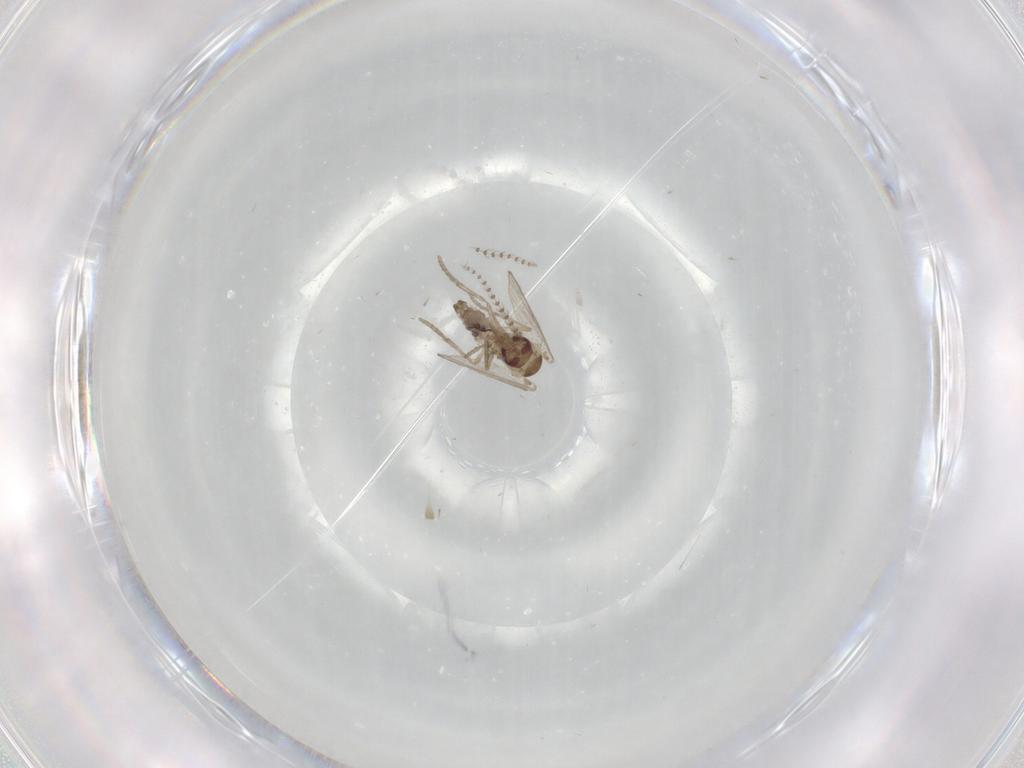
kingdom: Animalia
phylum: Arthropoda
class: Insecta
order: Diptera
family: Psychodidae
